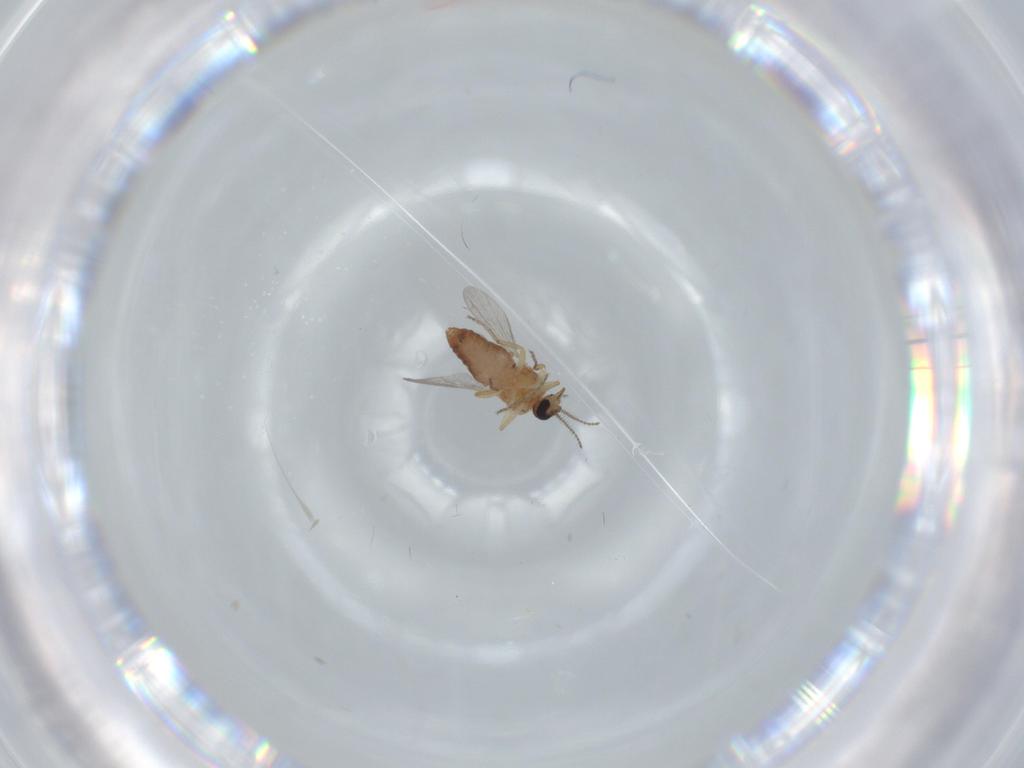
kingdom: Animalia
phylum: Arthropoda
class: Insecta
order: Diptera
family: Ceratopogonidae
